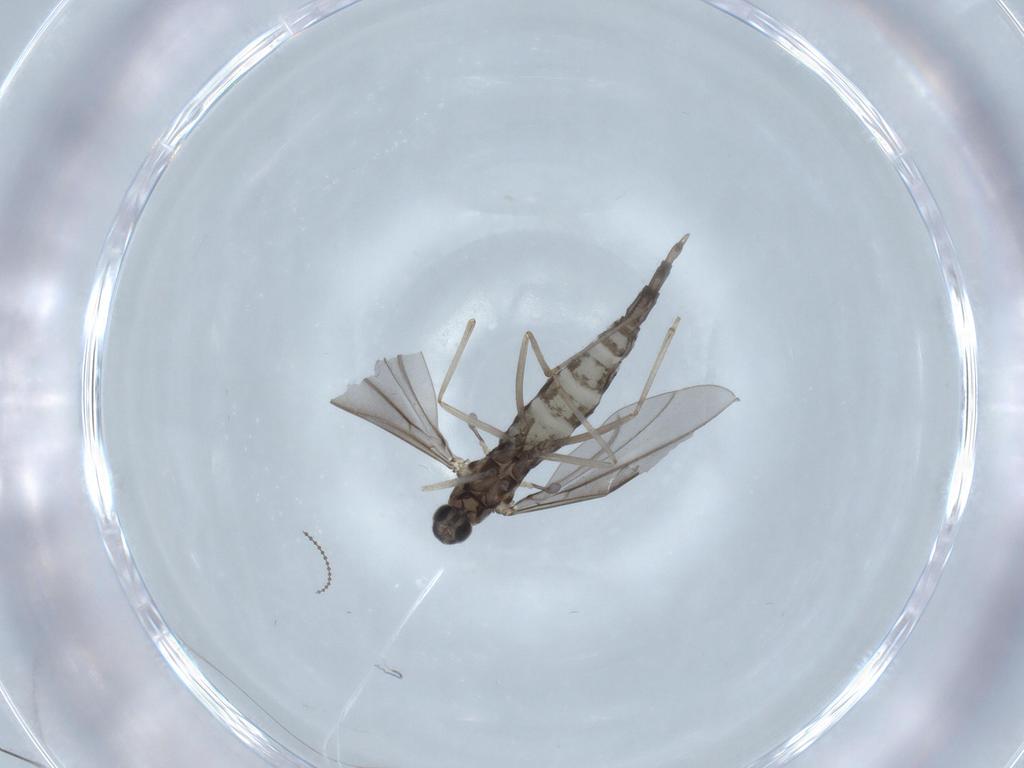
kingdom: Animalia
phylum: Arthropoda
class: Insecta
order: Diptera
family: Cecidomyiidae
